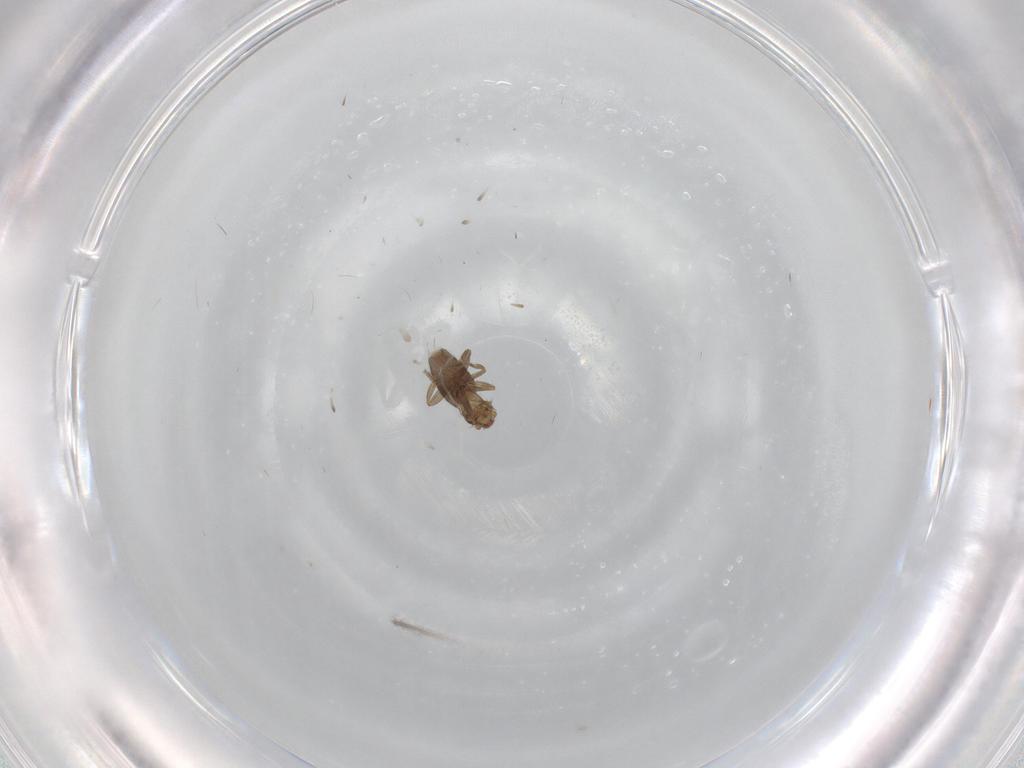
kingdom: Animalia
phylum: Arthropoda
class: Insecta
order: Diptera
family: Phoridae
